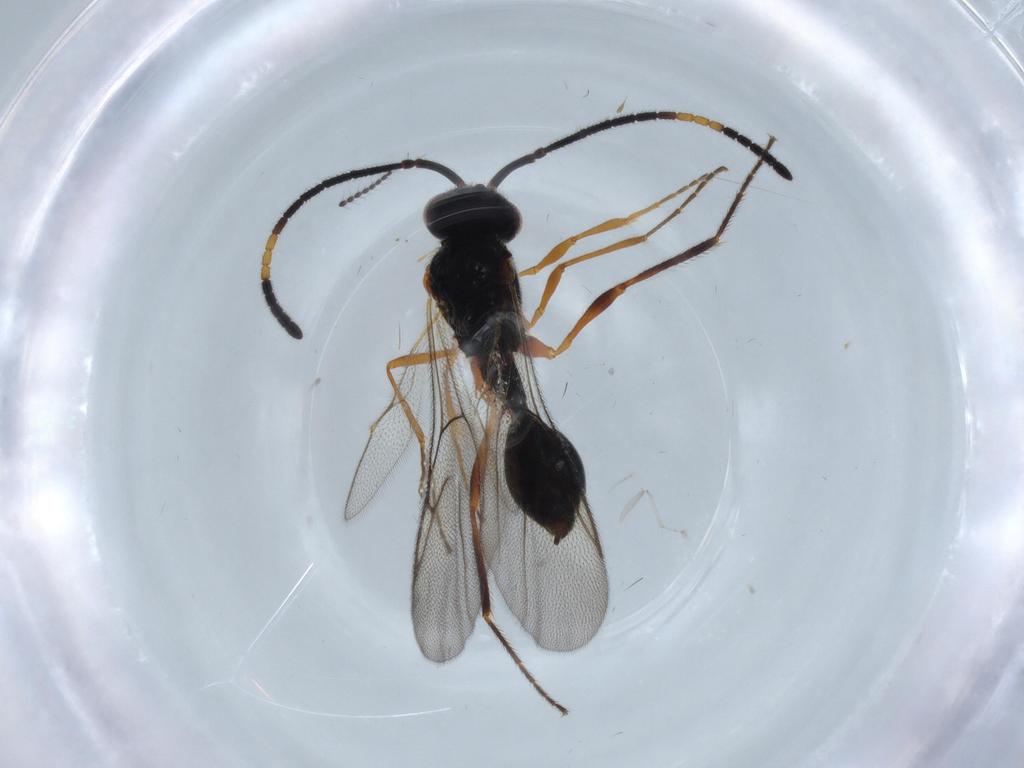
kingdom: Animalia
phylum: Arthropoda
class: Insecta
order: Hymenoptera
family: Diapriidae
